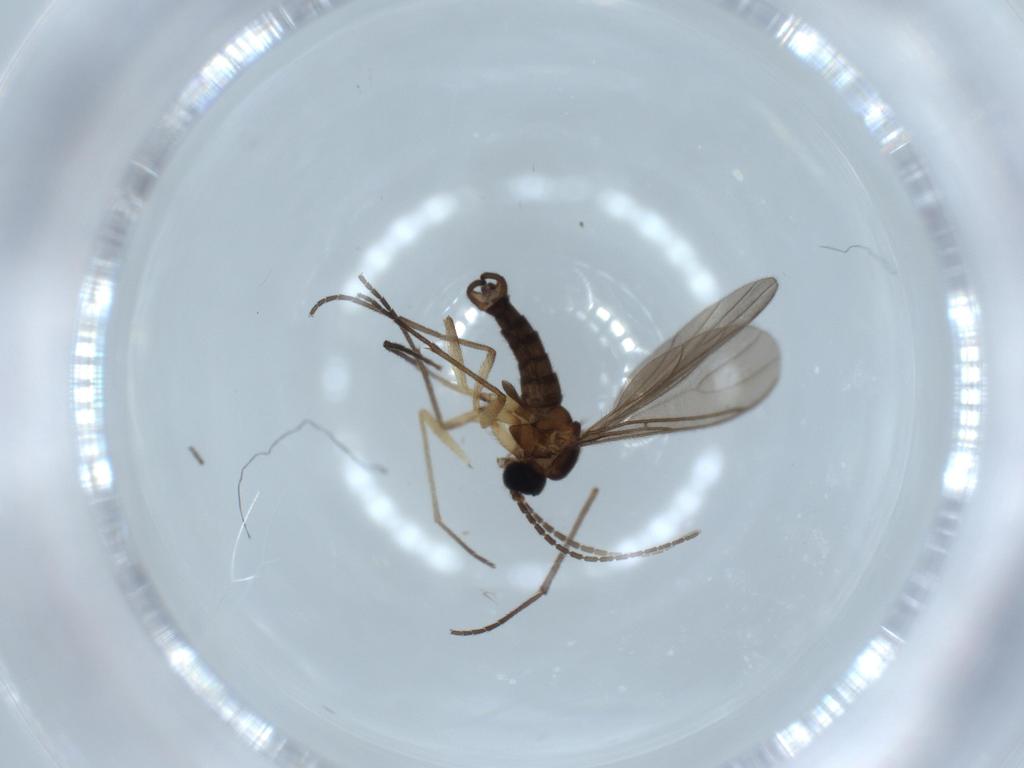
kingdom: Animalia
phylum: Arthropoda
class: Insecta
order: Diptera
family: Sciaridae
